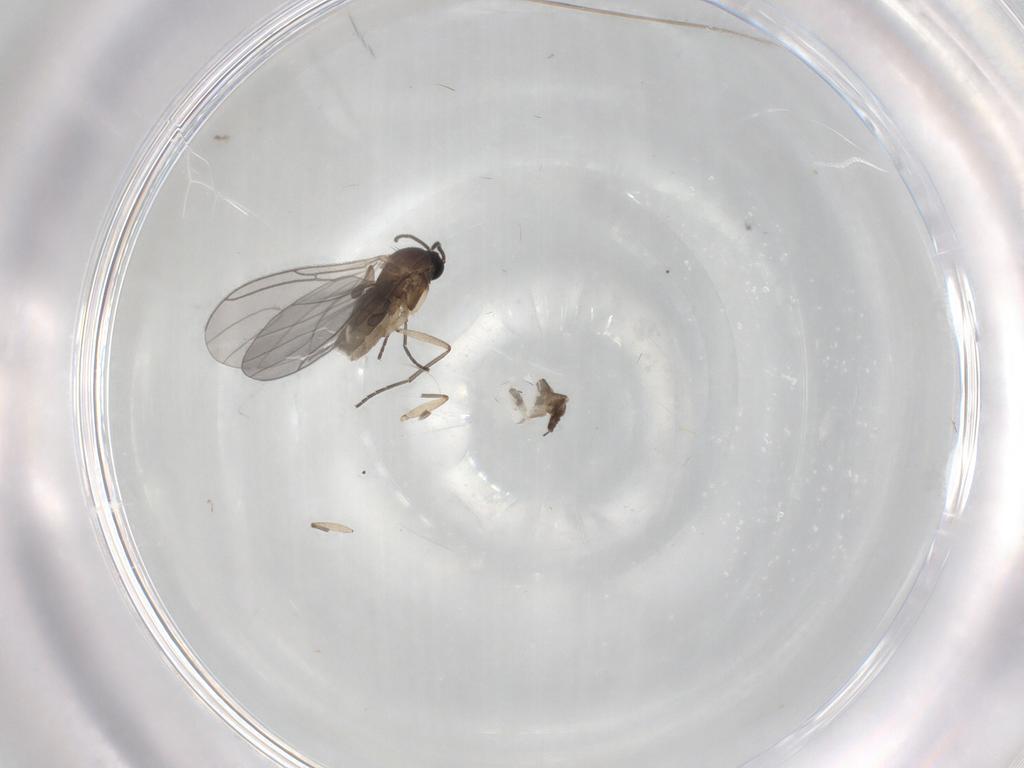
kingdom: Animalia
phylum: Arthropoda
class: Insecta
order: Diptera
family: Sciaridae
